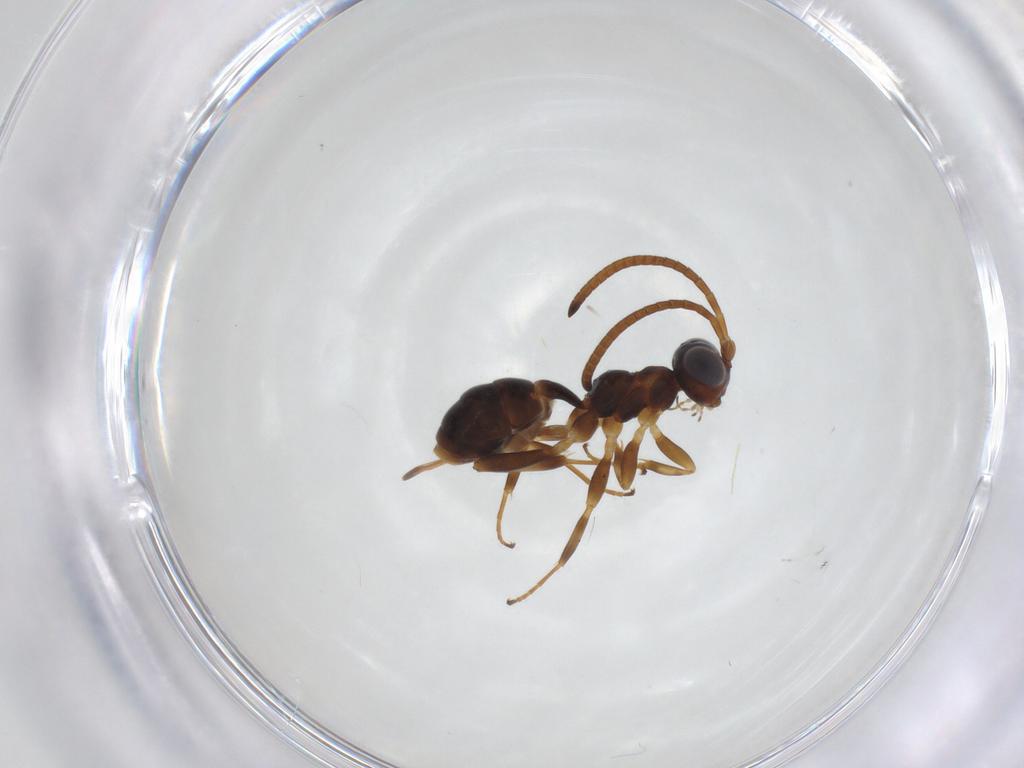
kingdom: Animalia
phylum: Arthropoda
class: Insecta
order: Hymenoptera
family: Ichneumonidae
